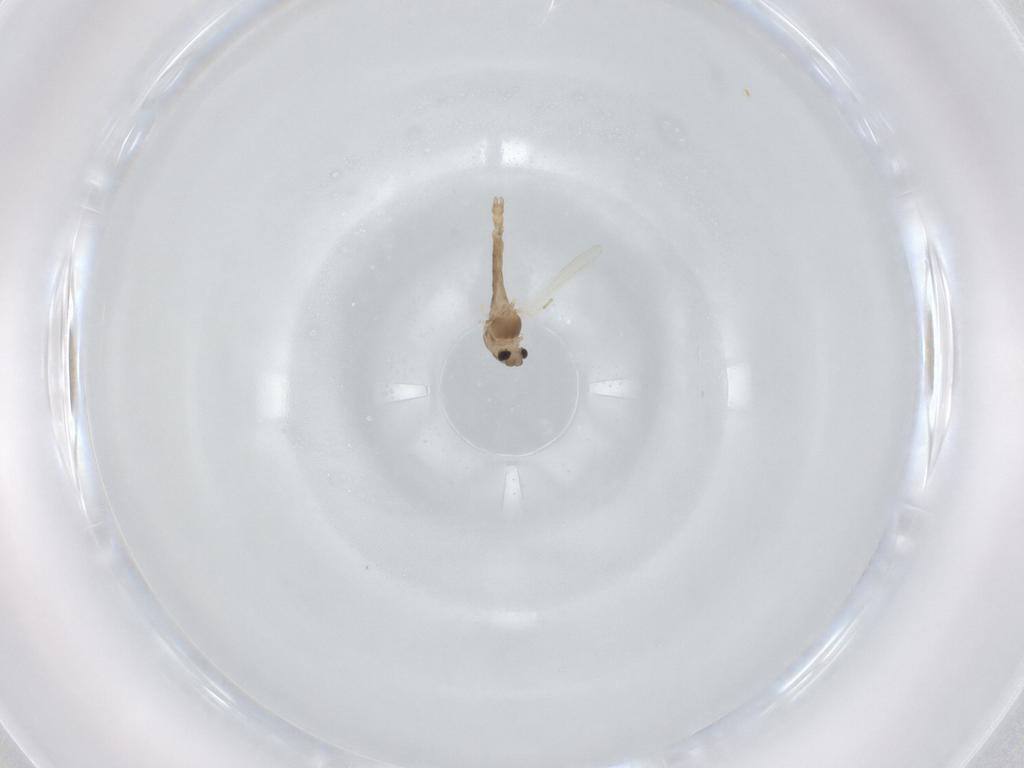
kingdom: Animalia
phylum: Arthropoda
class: Insecta
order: Diptera
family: Chironomidae
